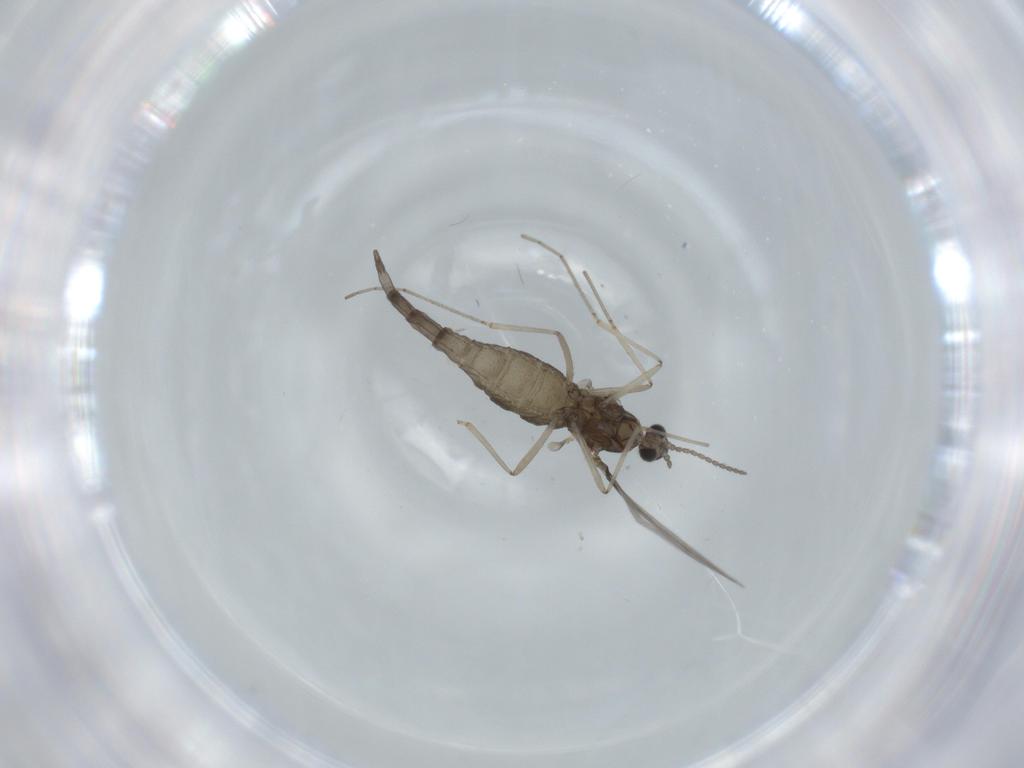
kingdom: Animalia
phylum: Arthropoda
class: Insecta
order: Diptera
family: Cecidomyiidae
